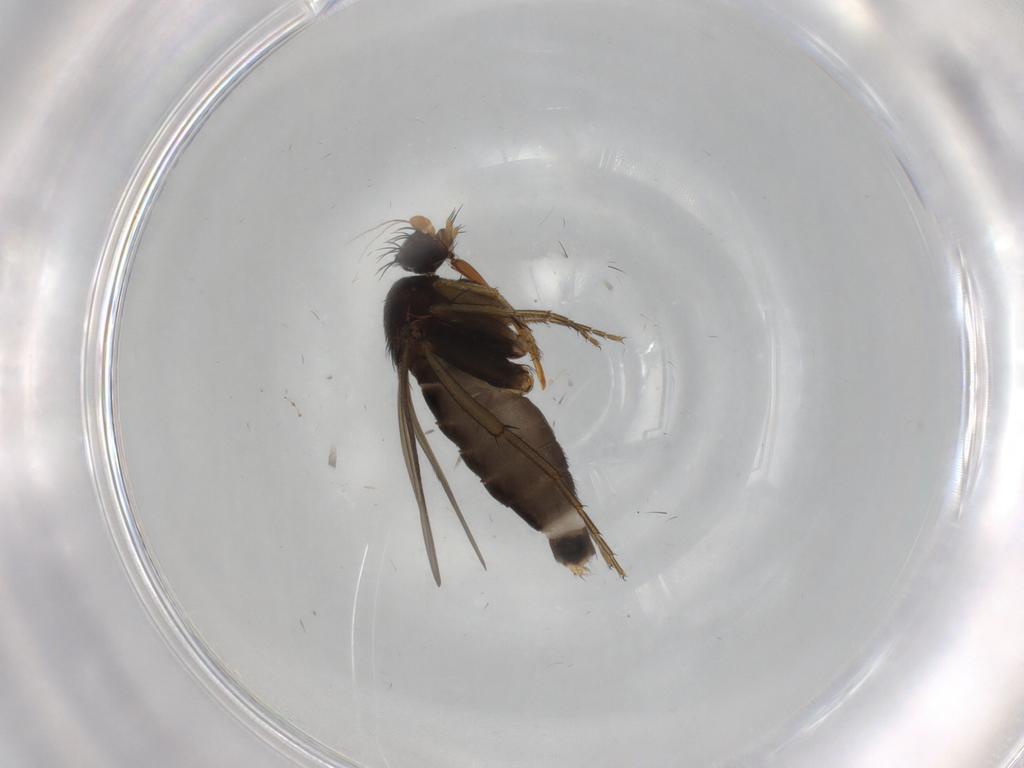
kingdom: Animalia
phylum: Arthropoda
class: Insecta
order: Diptera
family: Phoridae
